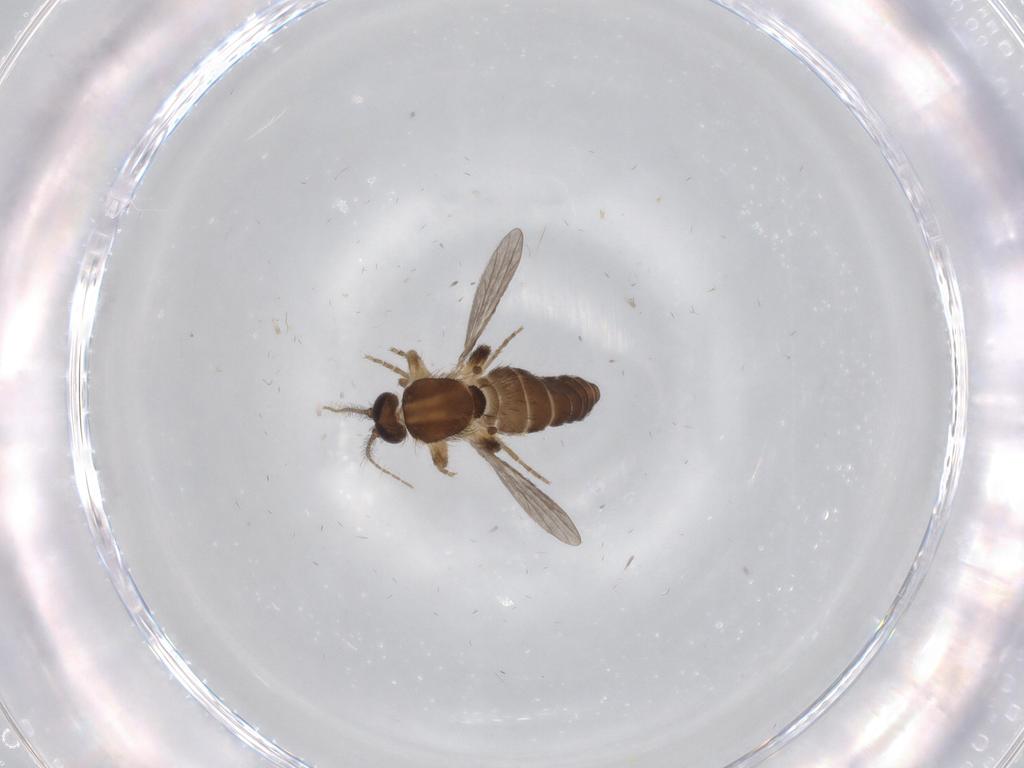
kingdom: Animalia
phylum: Arthropoda
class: Insecta
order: Diptera
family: Ceratopogonidae
